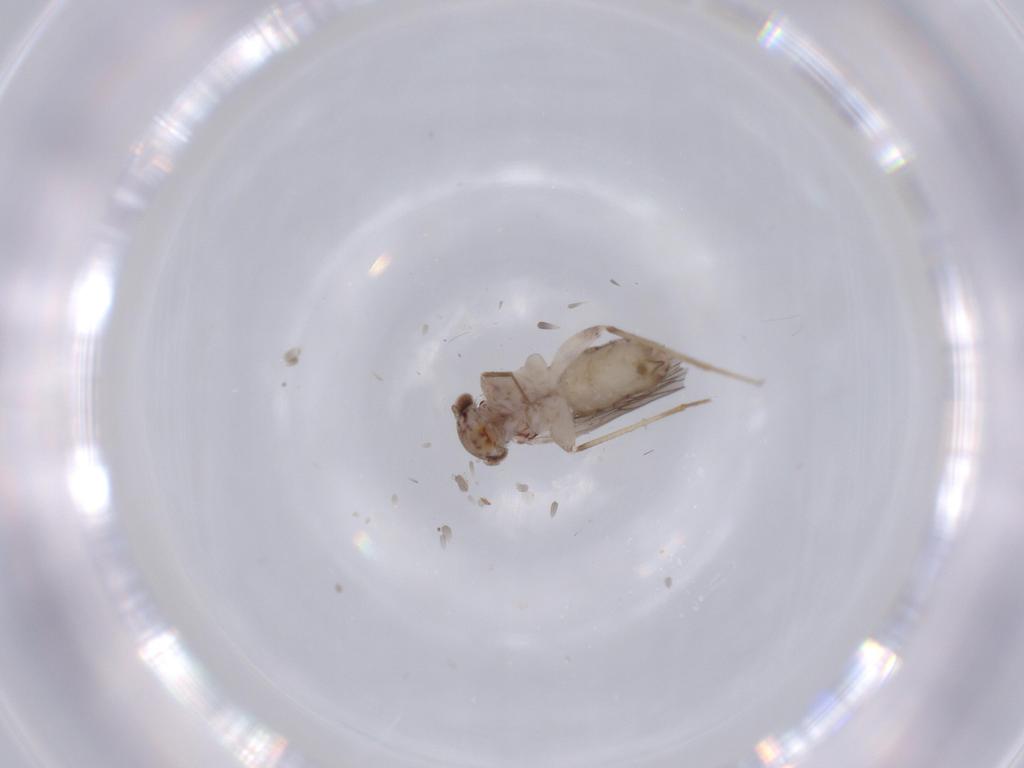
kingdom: Animalia
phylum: Arthropoda
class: Insecta
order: Psocodea
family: Lepidopsocidae
